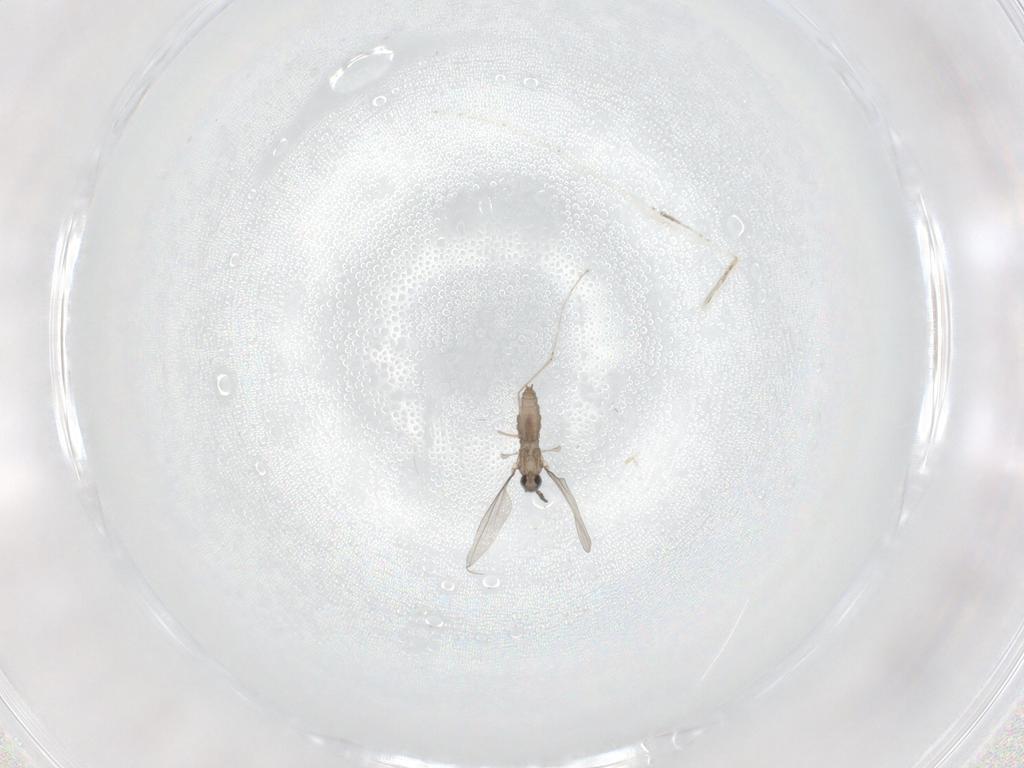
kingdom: Animalia
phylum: Arthropoda
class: Insecta
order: Diptera
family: Cecidomyiidae
